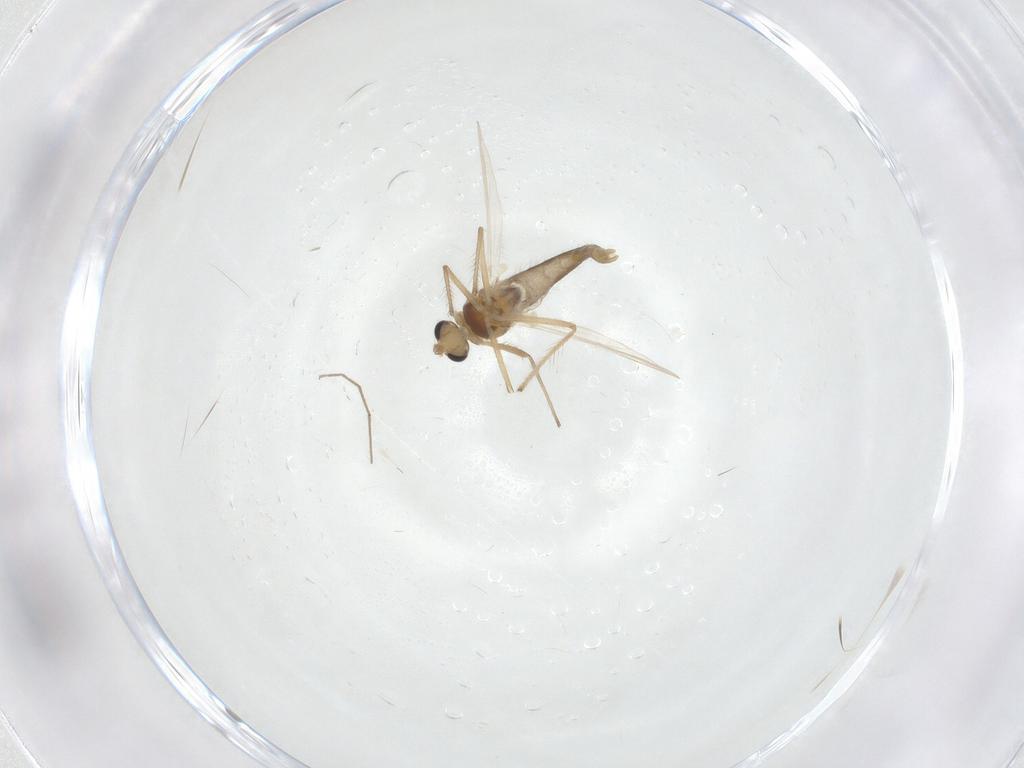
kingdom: Animalia
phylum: Arthropoda
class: Insecta
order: Diptera
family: Chironomidae
